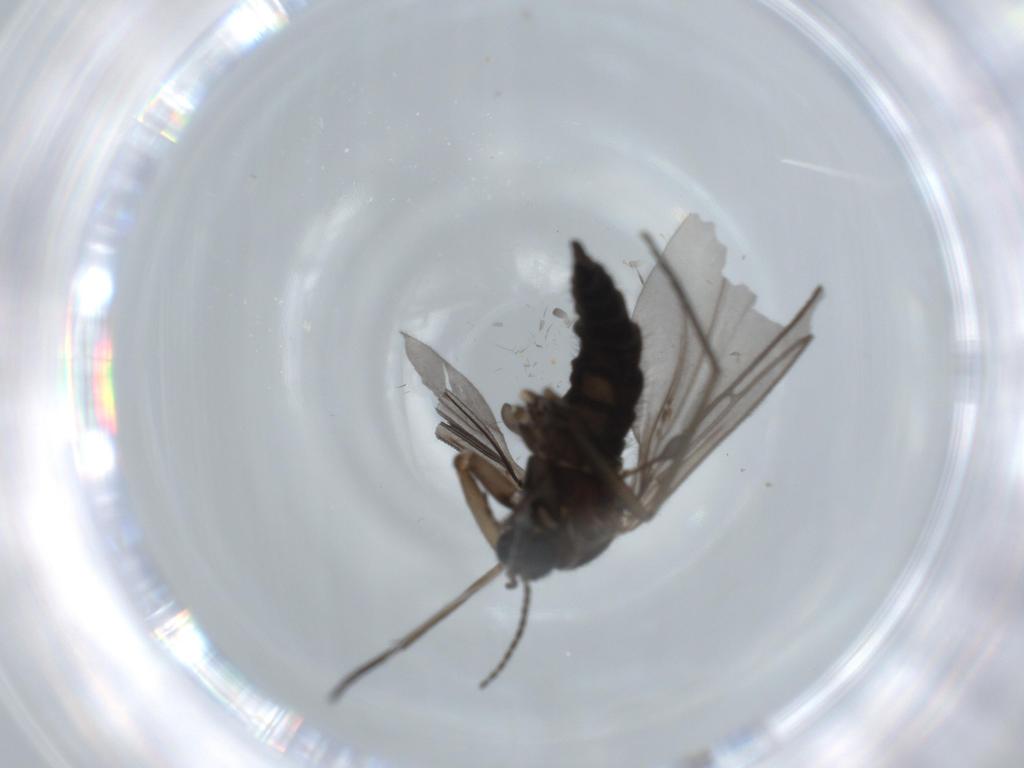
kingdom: Animalia
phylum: Arthropoda
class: Insecta
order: Diptera
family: Sciaridae
